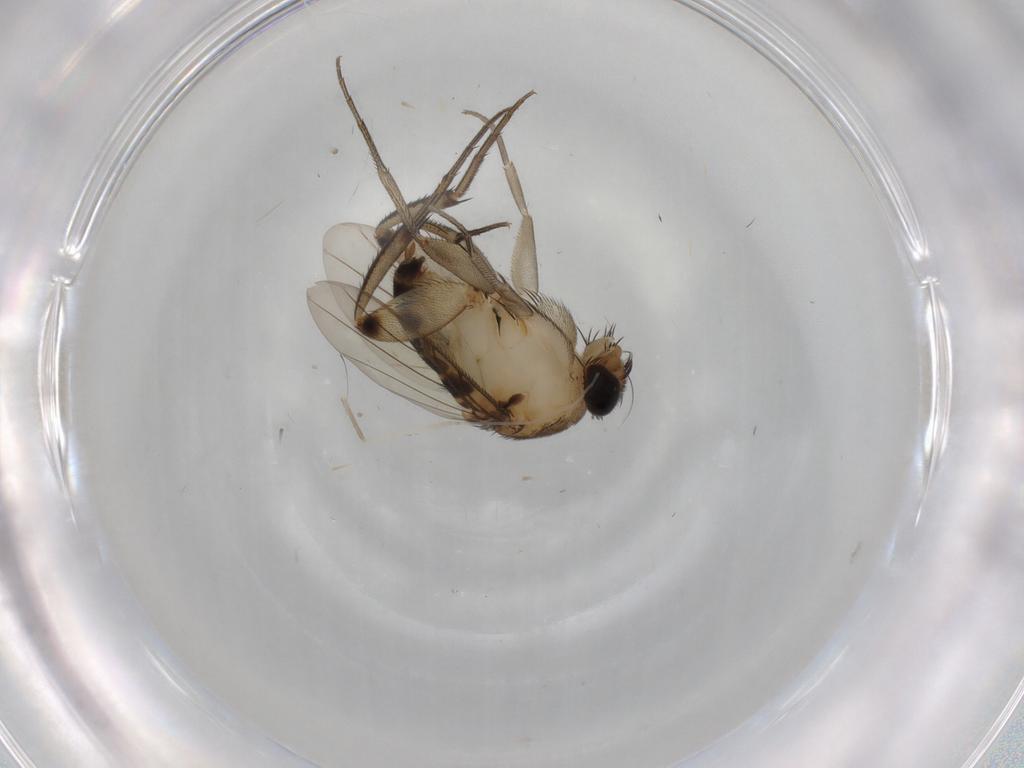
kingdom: Animalia
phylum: Arthropoda
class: Insecta
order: Diptera
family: Phoridae
